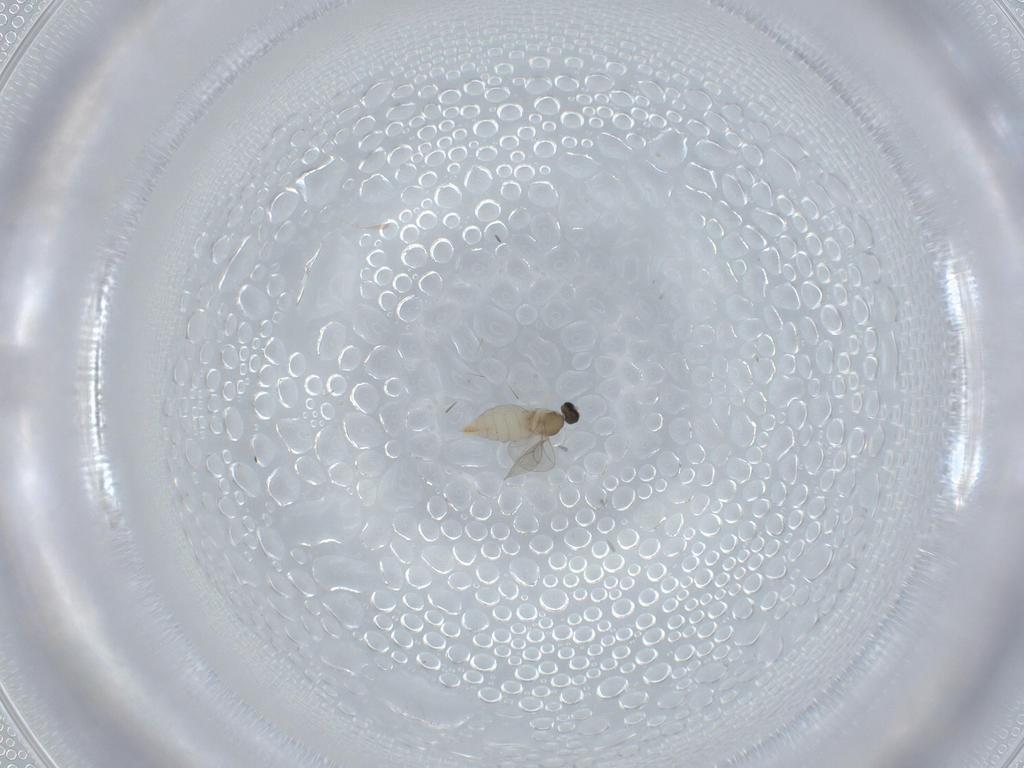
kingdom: Animalia
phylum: Arthropoda
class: Insecta
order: Diptera
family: Cecidomyiidae
